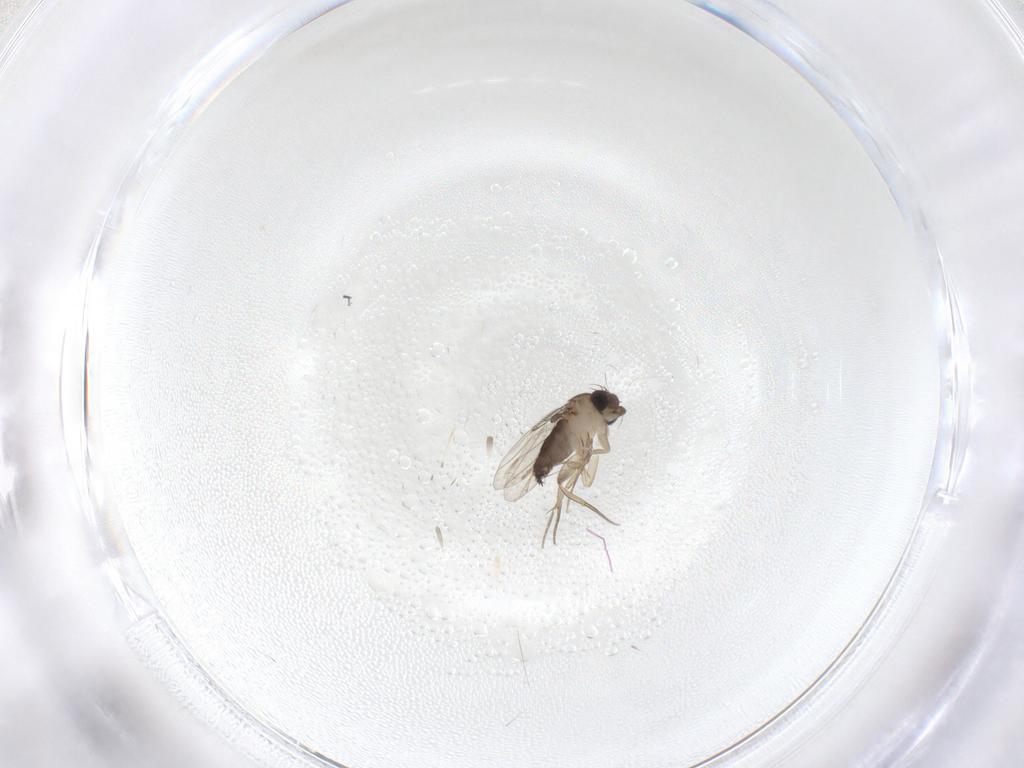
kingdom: Animalia
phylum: Arthropoda
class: Insecta
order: Diptera
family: Phoridae
